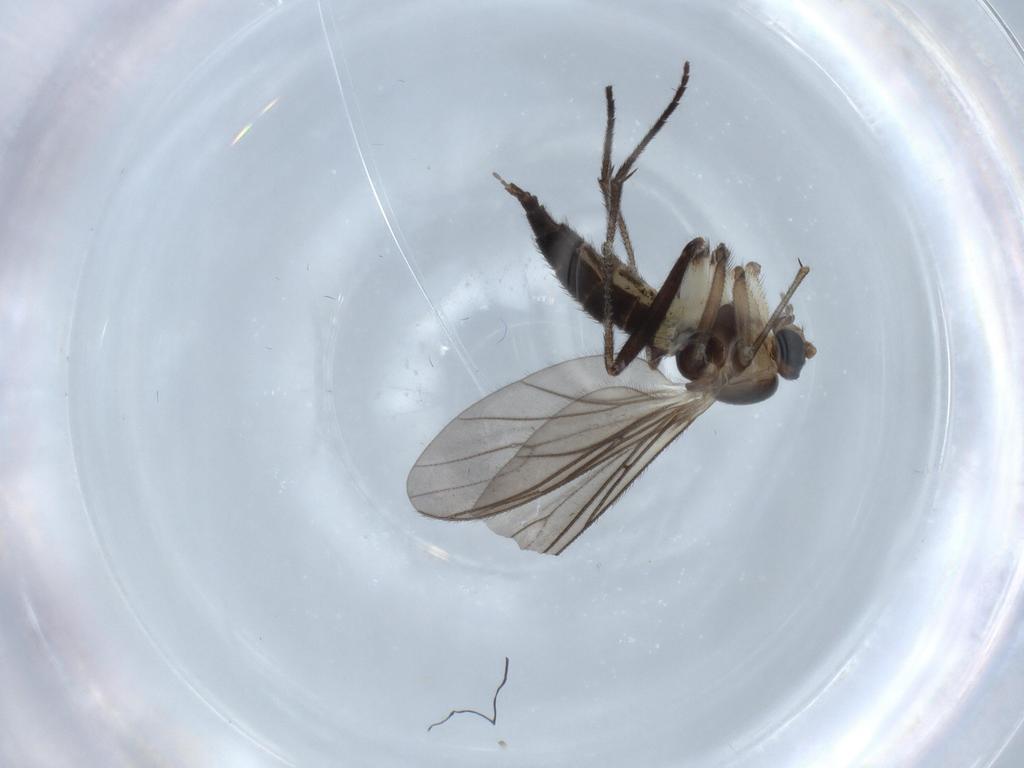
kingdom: Animalia
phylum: Arthropoda
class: Insecta
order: Diptera
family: Sciaridae
